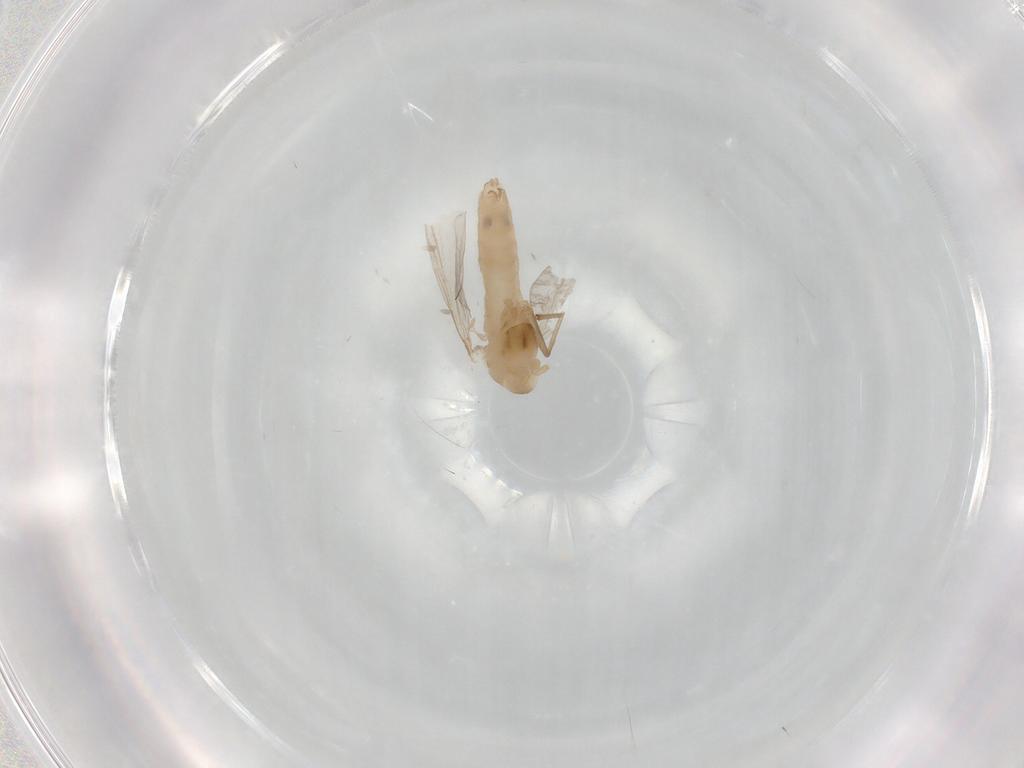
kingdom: Animalia
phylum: Arthropoda
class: Insecta
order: Diptera
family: Chironomidae
